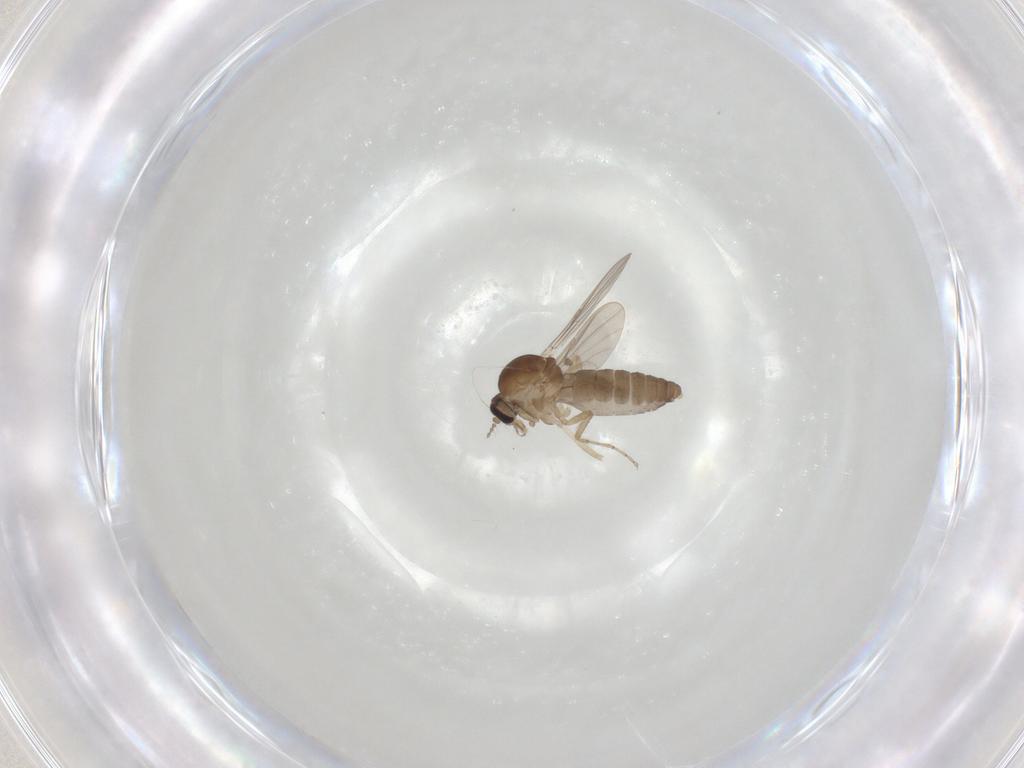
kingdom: Animalia
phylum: Arthropoda
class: Insecta
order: Diptera
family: Ceratopogonidae
